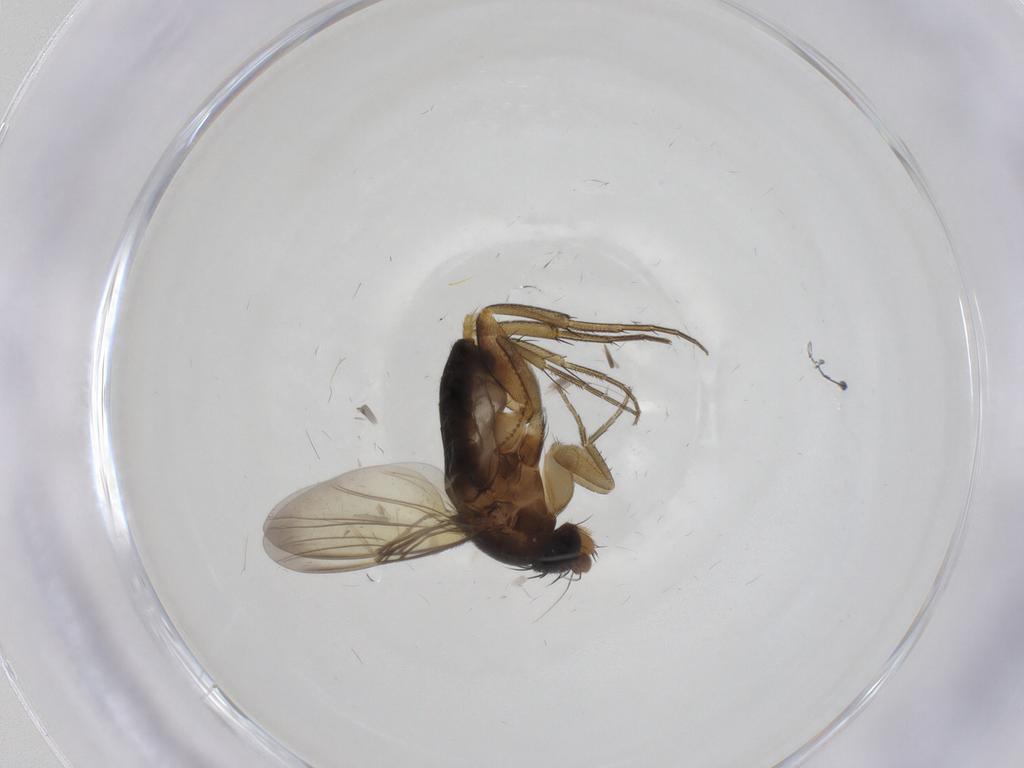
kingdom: Animalia
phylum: Arthropoda
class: Insecta
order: Diptera
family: Phoridae
